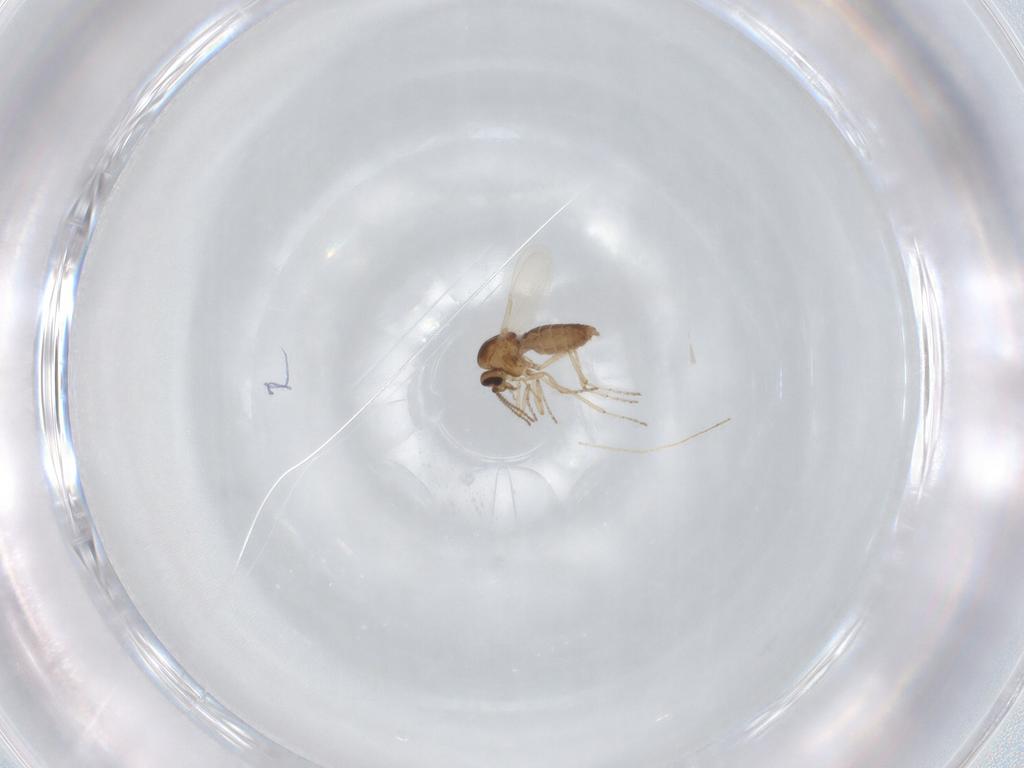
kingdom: Animalia
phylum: Arthropoda
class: Insecta
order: Diptera
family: Ceratopogonidae
